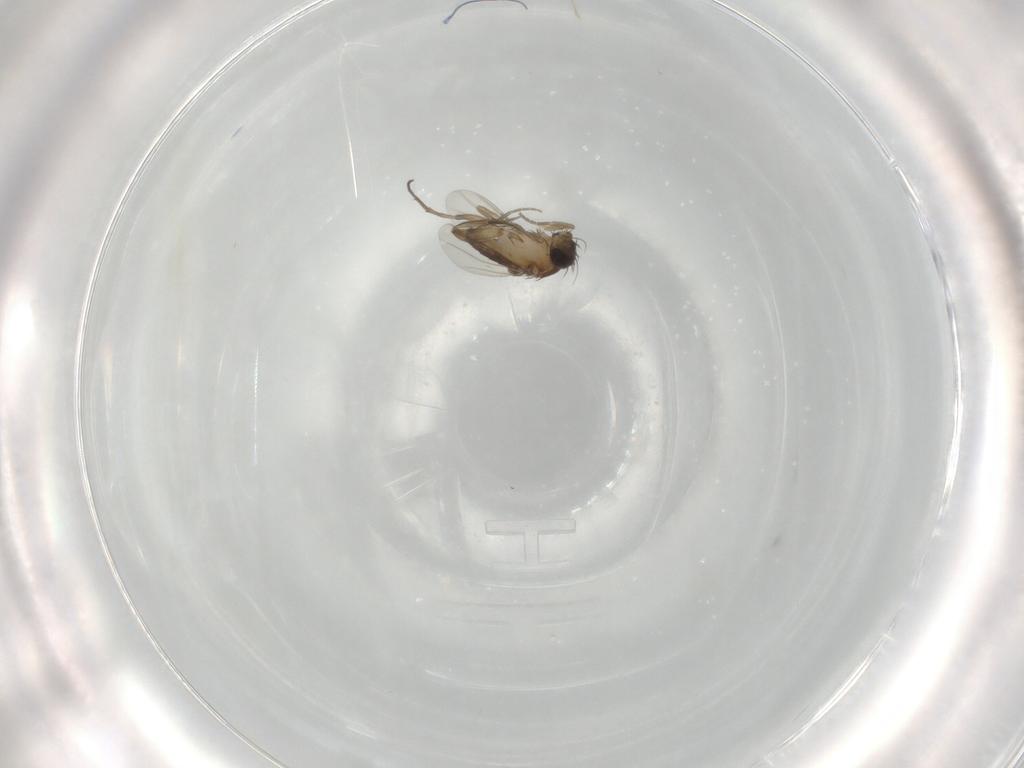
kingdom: Animalia
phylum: Arthropoda
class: Insecta
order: Diptera
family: Phoridae
